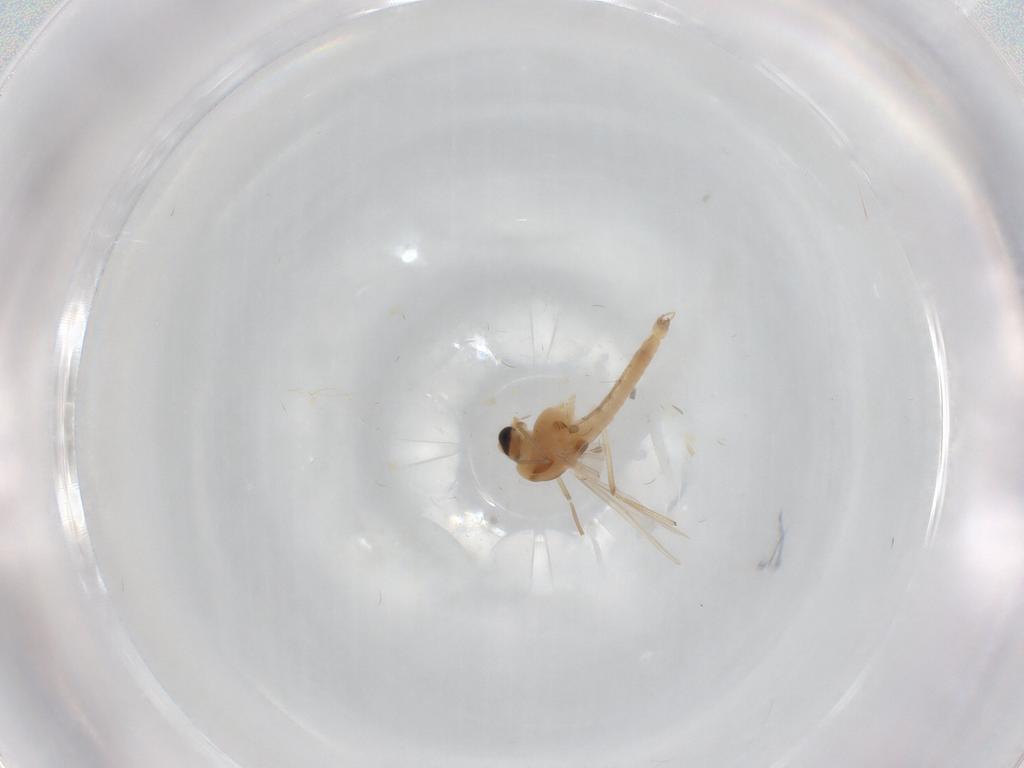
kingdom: Animalia
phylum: Arthropoda
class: Insecta
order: Diptera
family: Chironomidae
